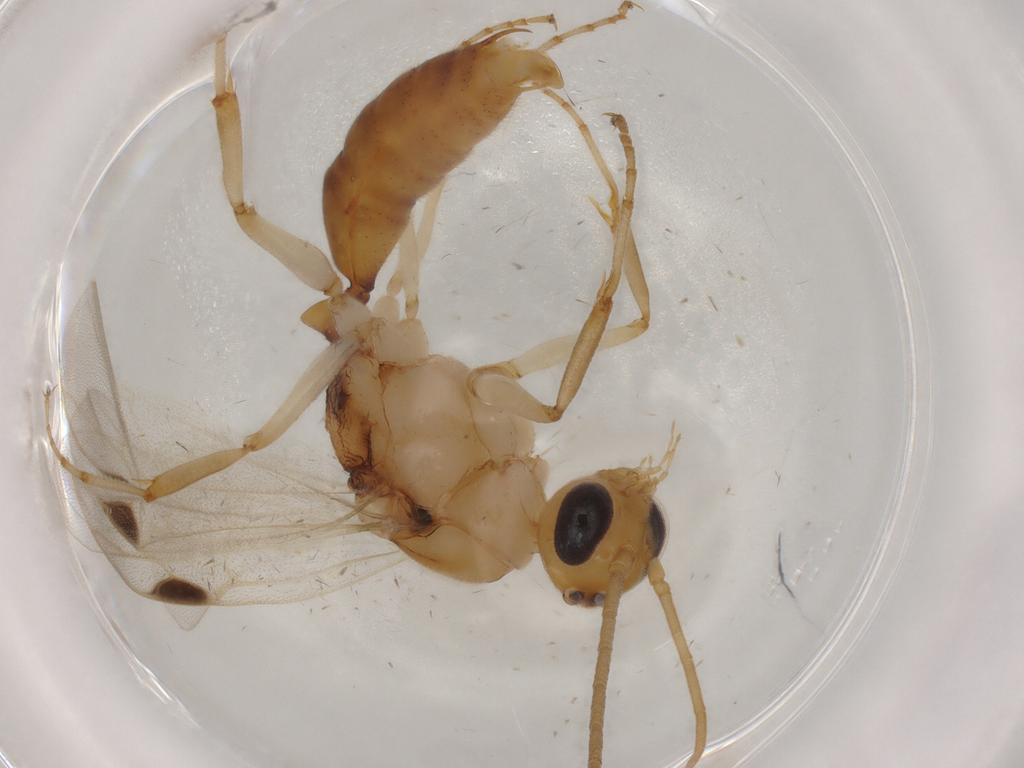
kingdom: Animalia
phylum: Arthropoda
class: Insecta
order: Hymenoptera
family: Formicidae
